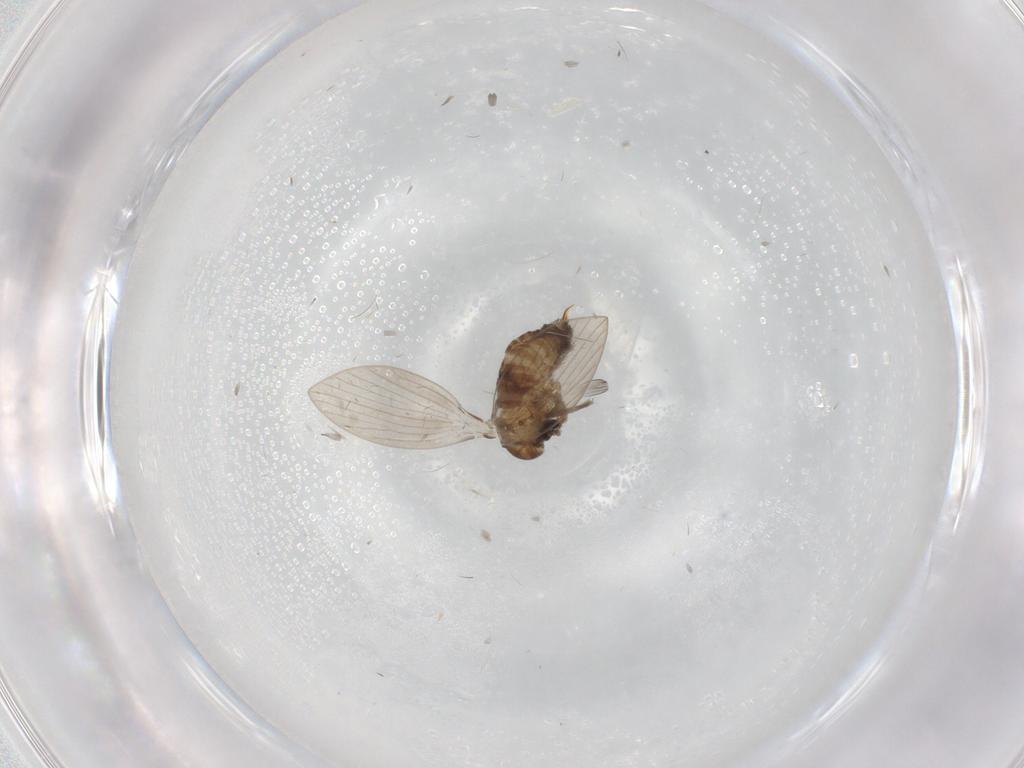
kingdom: Animalia
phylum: Arthropoda
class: Insecta
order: Diptera
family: Psychodidae
